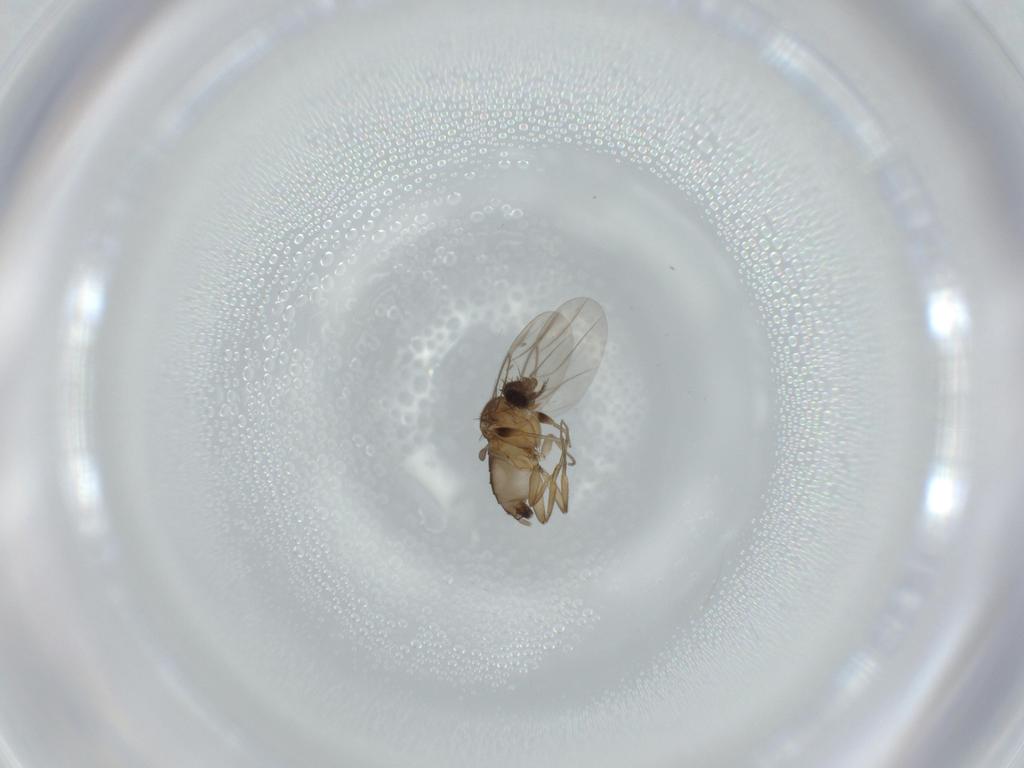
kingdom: Animalia
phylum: Arthropoda
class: Insecta
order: Diptera
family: Phoridae
